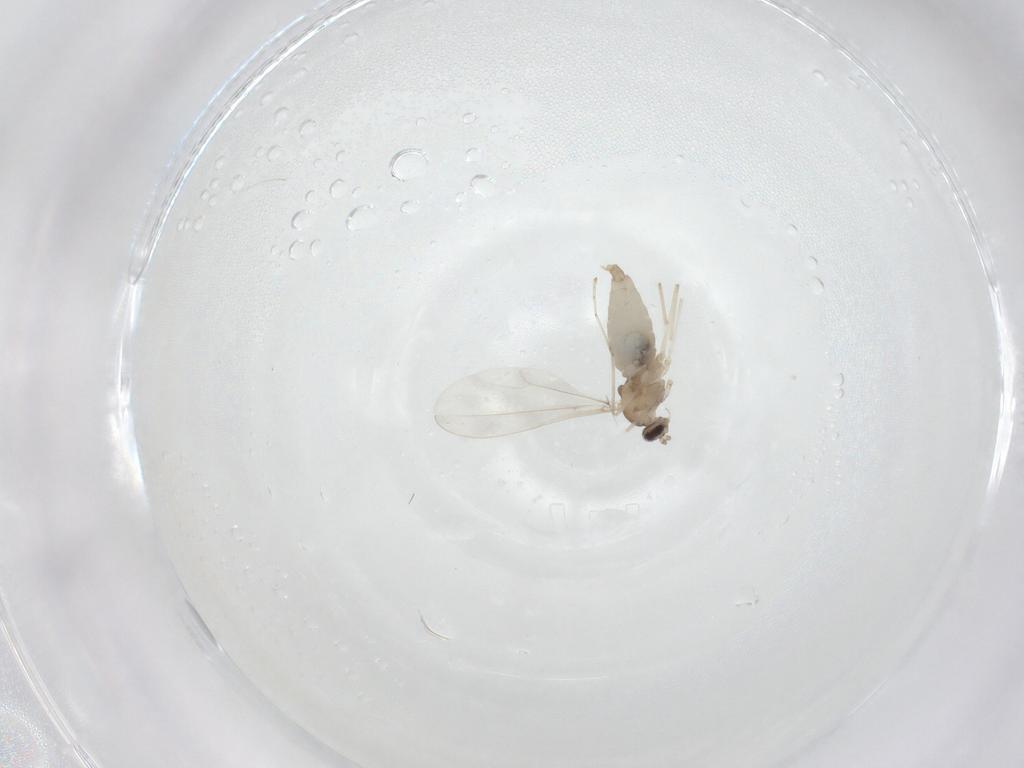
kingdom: Animalia
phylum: Arthropoda
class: Insecta
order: Diptera
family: Cecidomyiidae
